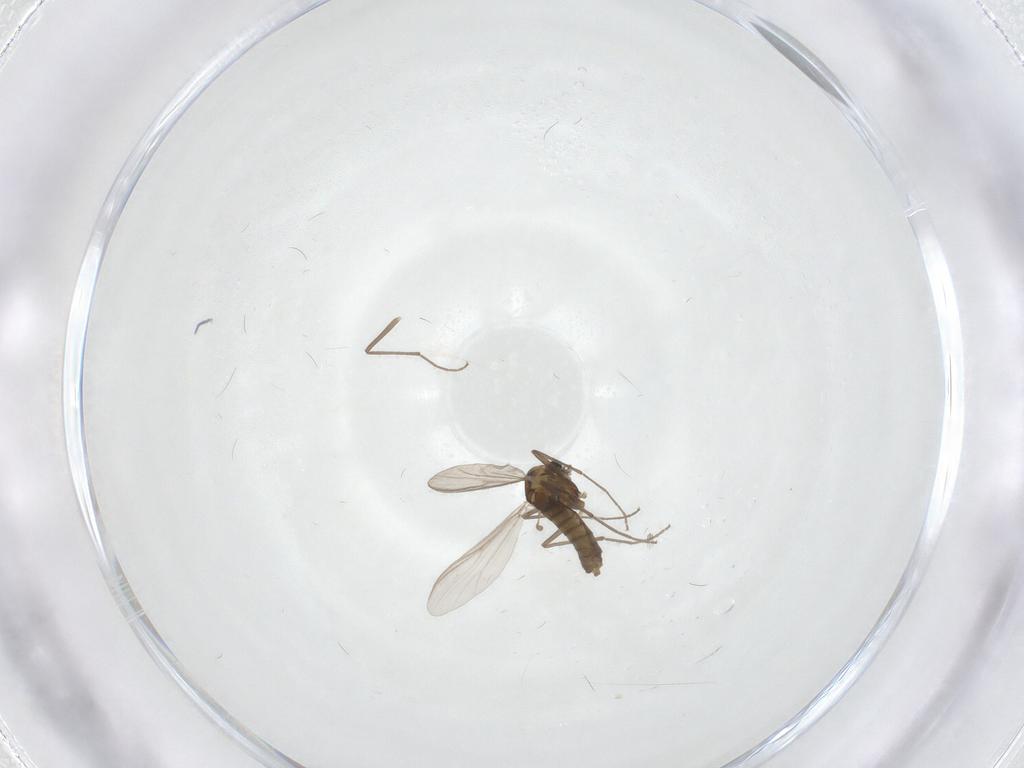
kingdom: Animalia
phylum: Arthropoda
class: Insecta
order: Diptera
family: Chironomidae
